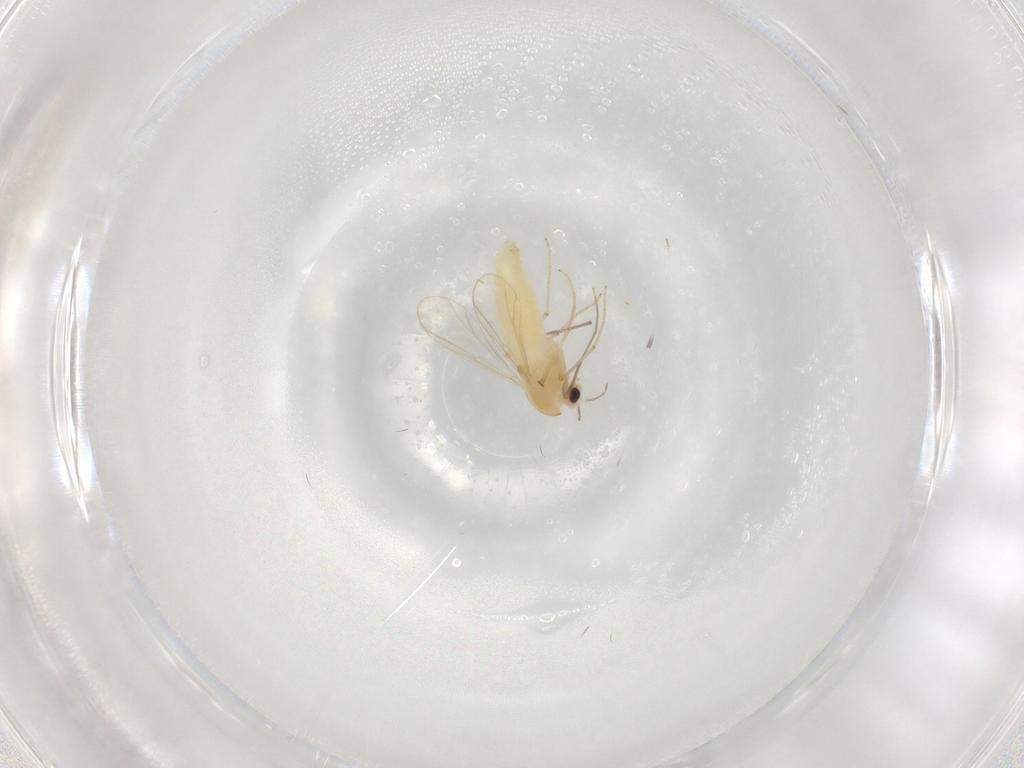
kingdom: Animalia
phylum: Arthropoda
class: Insecta
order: Diptera
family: Chironomidae
